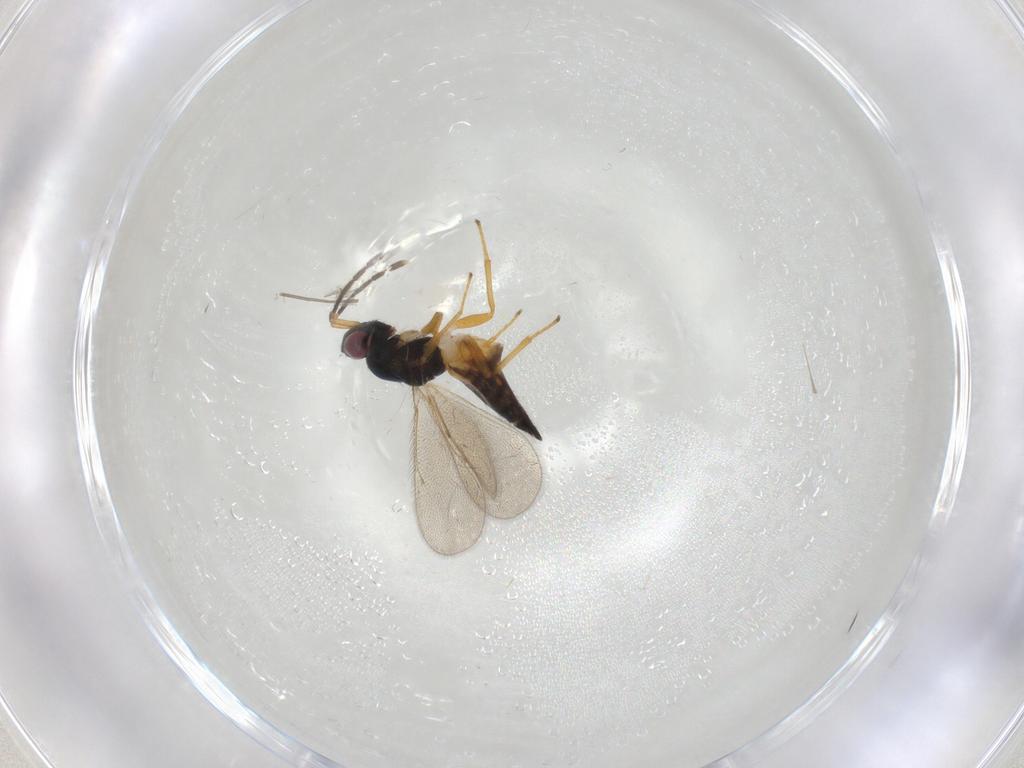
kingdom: Animalia
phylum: Arthropoda
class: Insecta
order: Hymenoptera
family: Eulophidae
